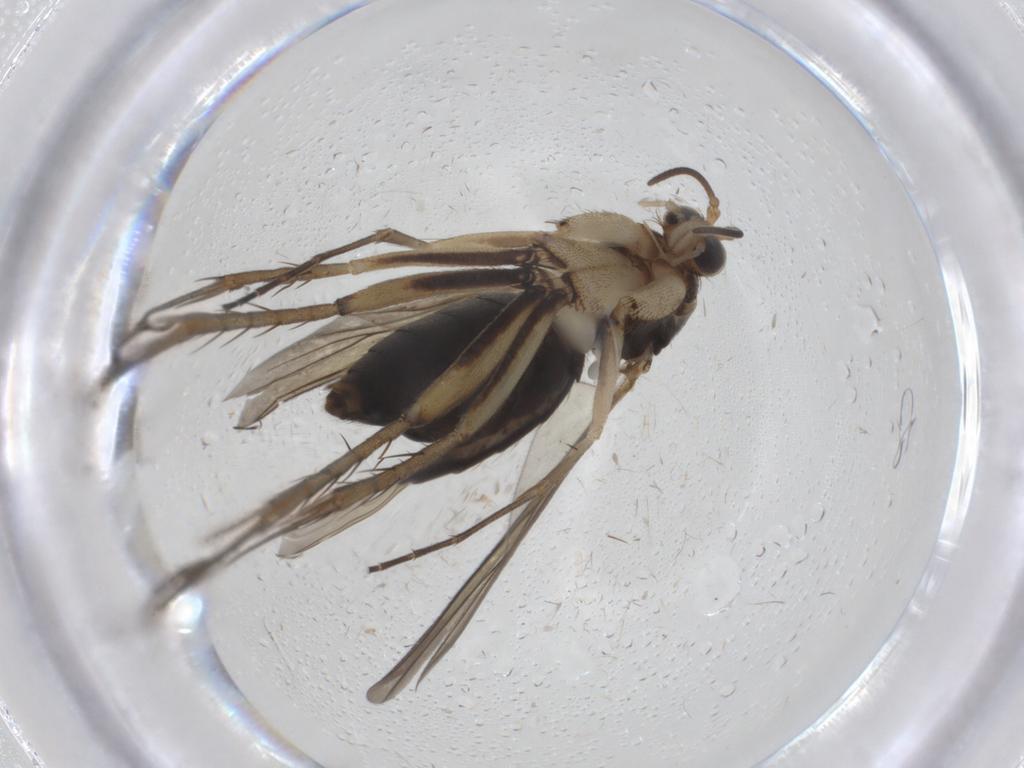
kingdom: Animalia
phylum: Arthropoda
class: Insecta
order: Diptera
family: Mycetophilidae
